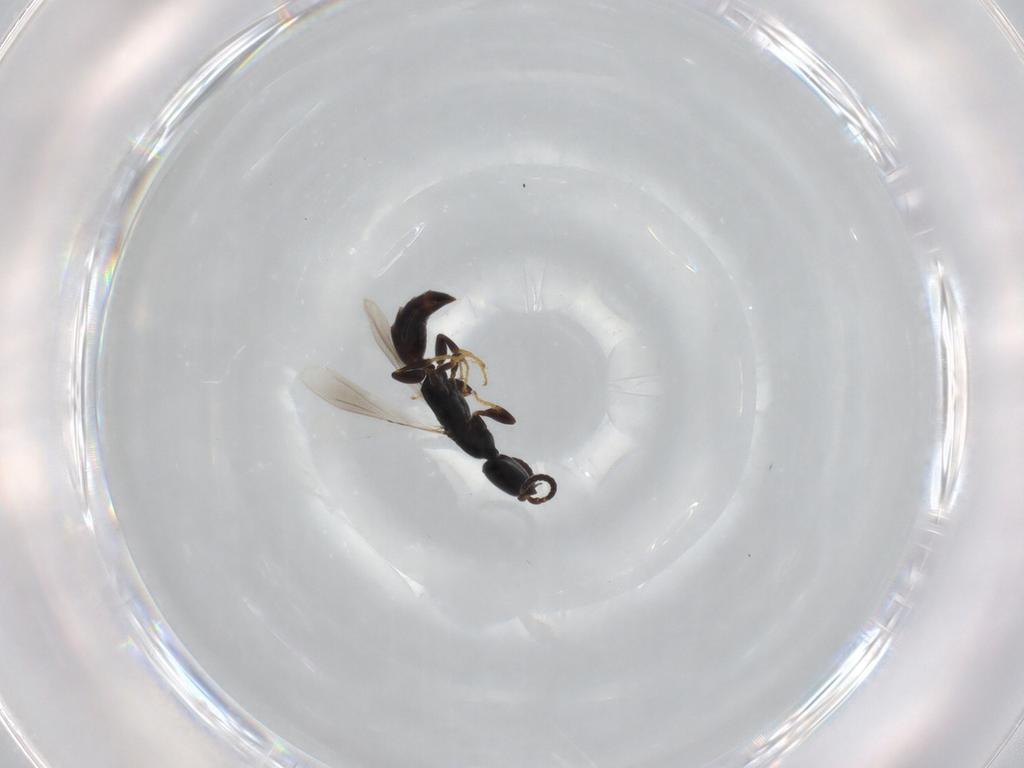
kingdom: Animalia
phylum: Arthropoda
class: Insecta
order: Hymenoptera
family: Bethylidae
